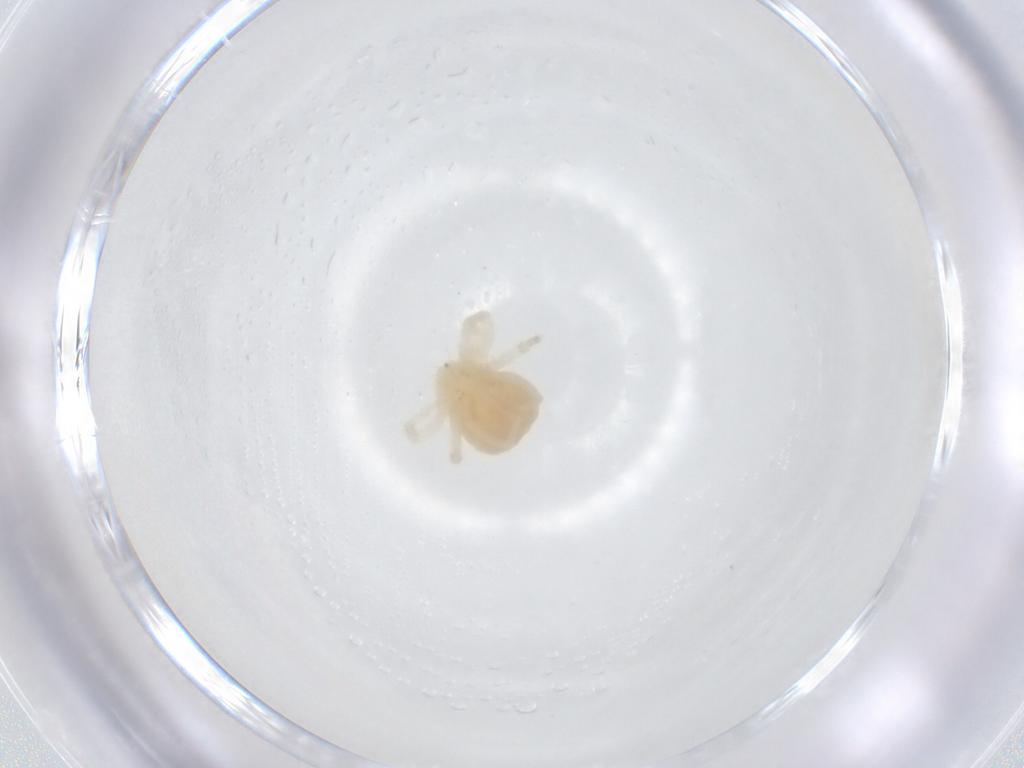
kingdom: Animalia
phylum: Arthropoda
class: Arachnida
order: Trombidiformes
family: Anystidae
